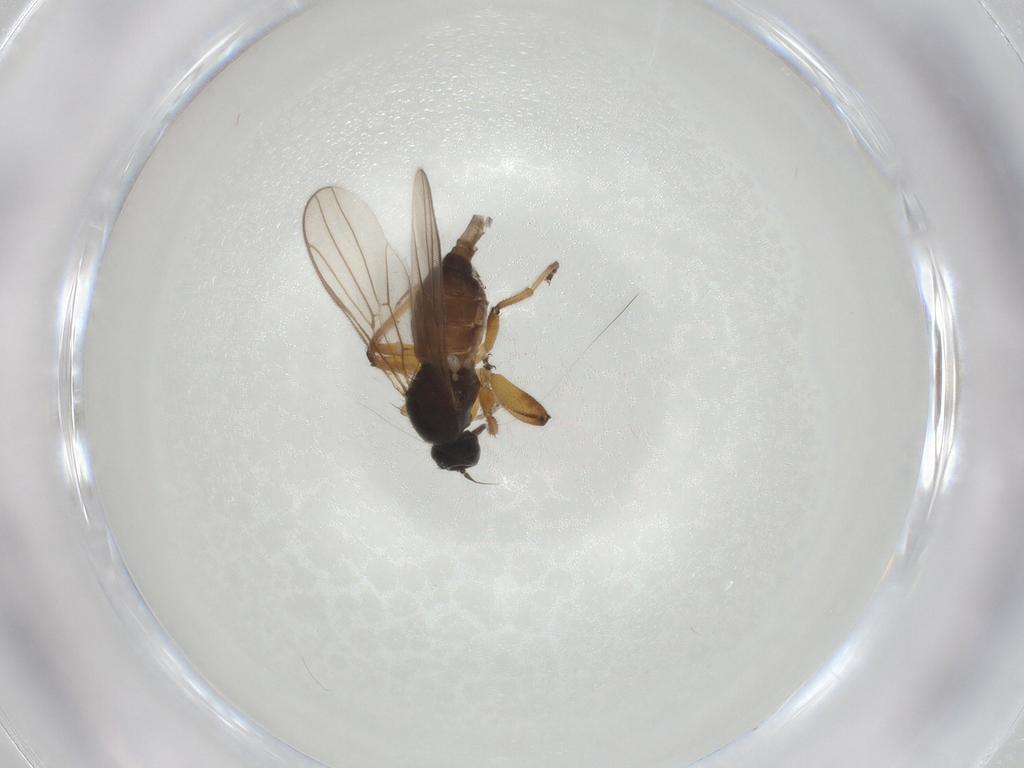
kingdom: Animalia
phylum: Arthropoda
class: Insecta
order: Diptera
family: Hybotidae
